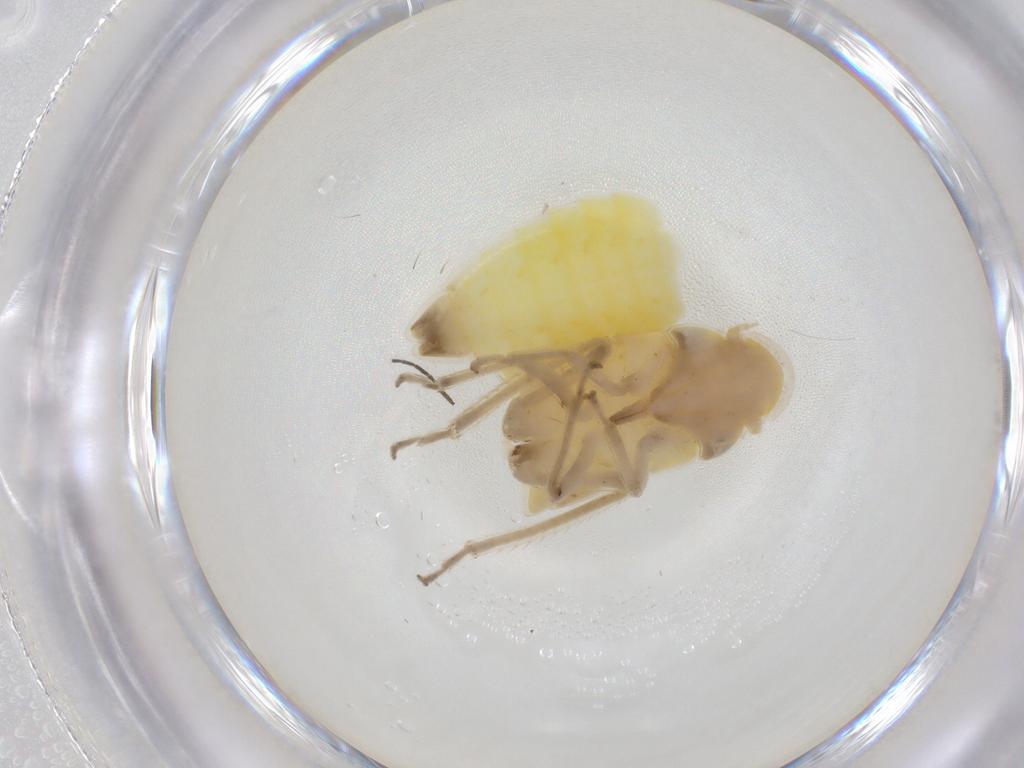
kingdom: Animalia
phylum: Arthropoda
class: Insecta
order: Hemiptera
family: Cicadellidae
